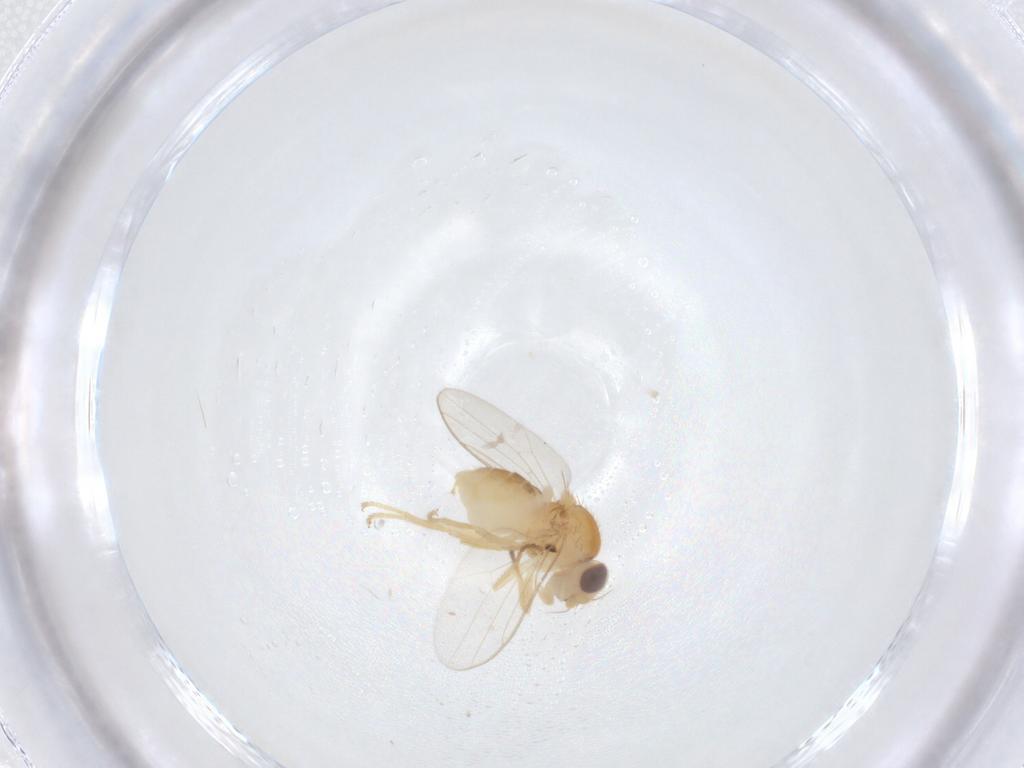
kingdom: Animalia
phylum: Arthropoda
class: Insecta
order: Diptera
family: Chloropidae
